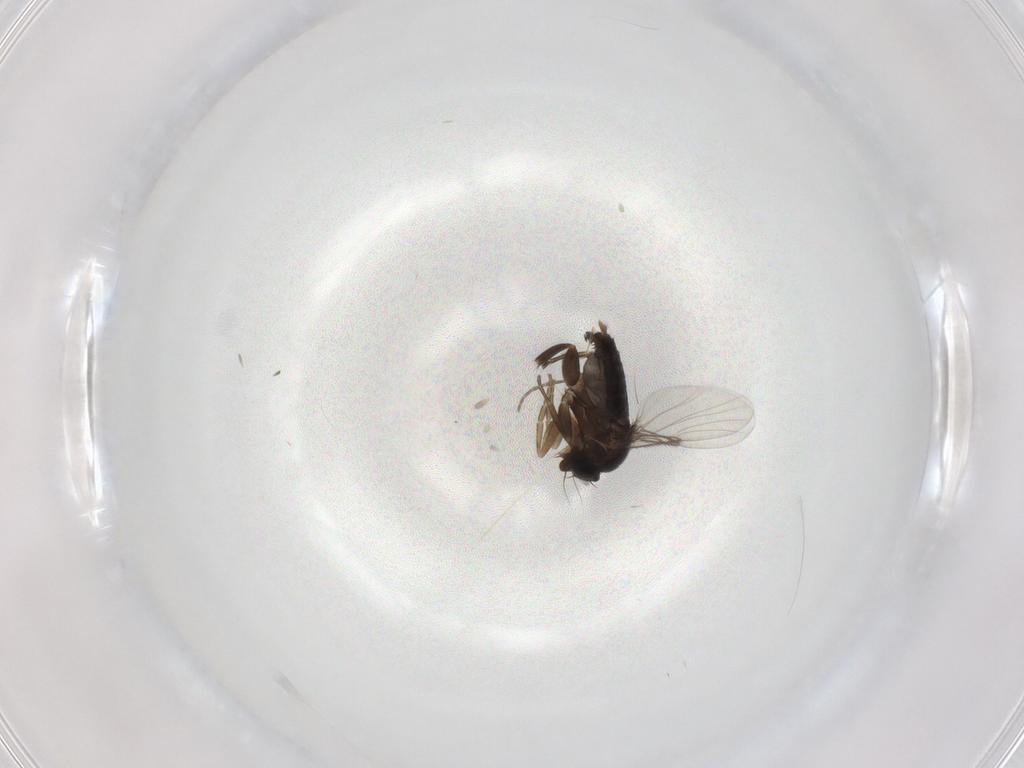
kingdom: Animalia
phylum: Arthropoda
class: Insecta
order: Diptera
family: Phoridae
